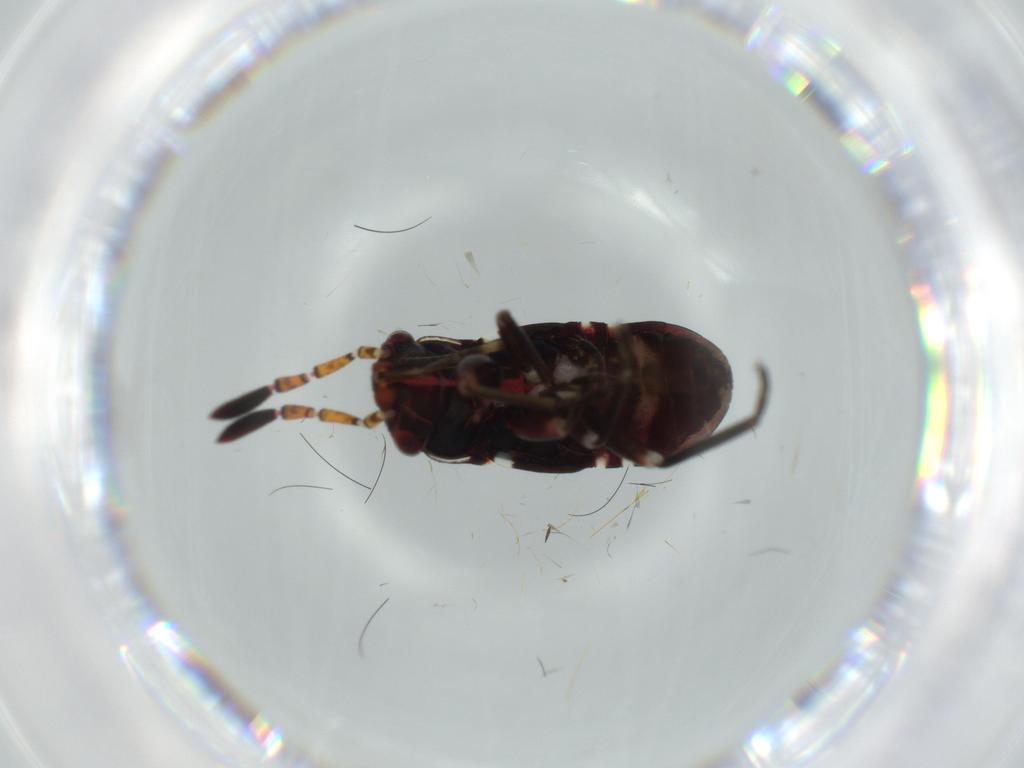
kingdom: Animalia
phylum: Arthropoda
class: Insecta
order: Hemiptera
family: Rhyparochromidae
